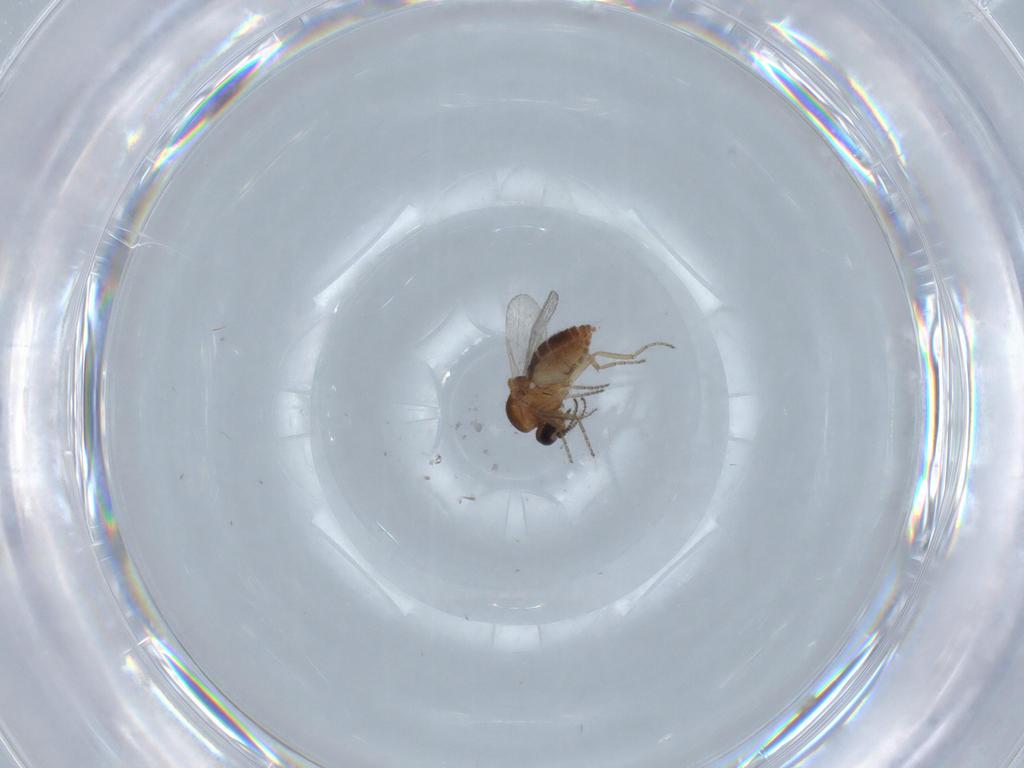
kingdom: Animalia
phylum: Arthropoda
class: Insecta
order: Diptera
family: Ceratopogonidae
